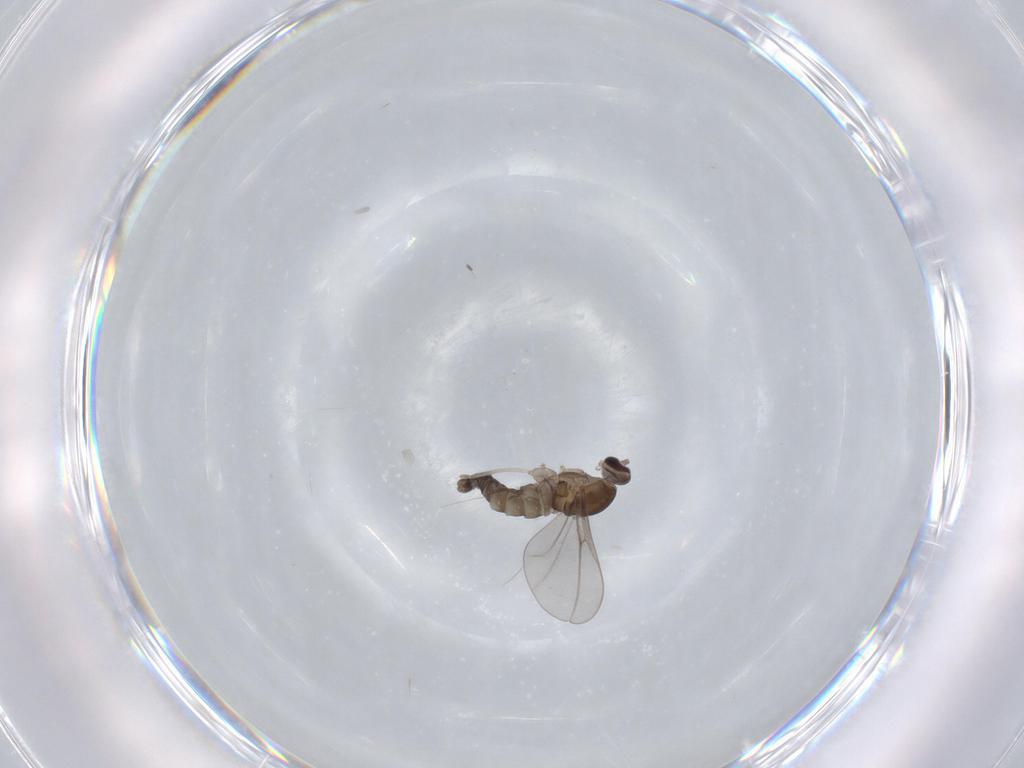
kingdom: Animalia
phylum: Arthropoda
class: Insecta
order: Diptera
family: Cecidomyiidae
